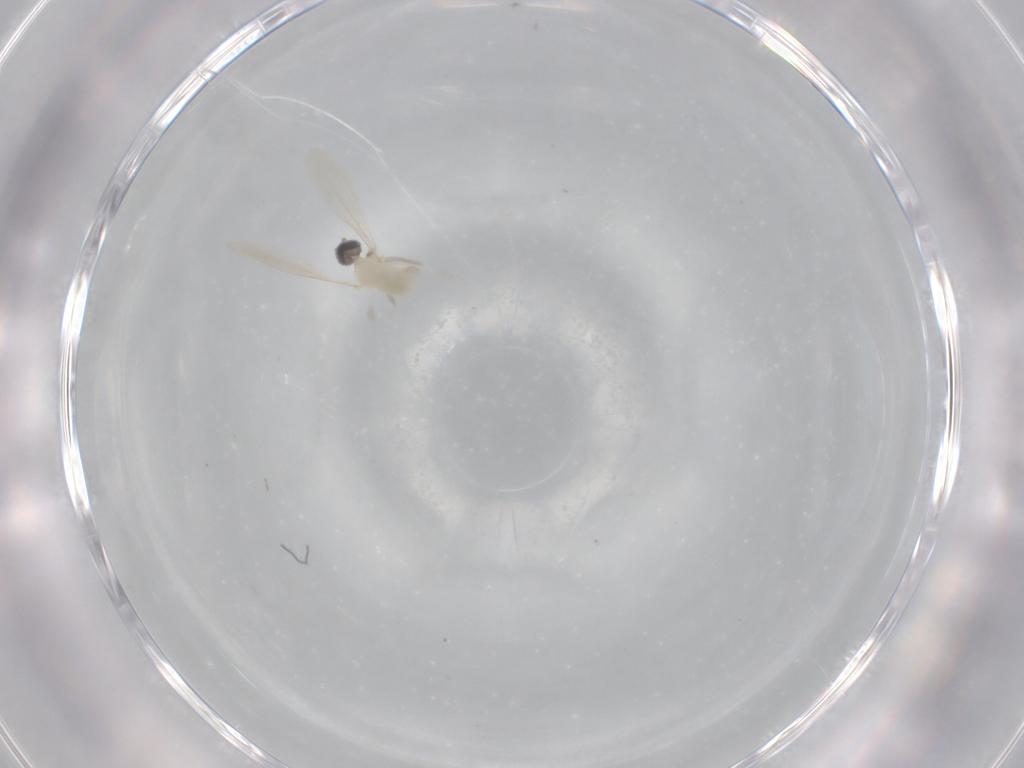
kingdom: Animalia
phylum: Arthropoda
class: Insecta
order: Diptera
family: Cecidomyiidae
